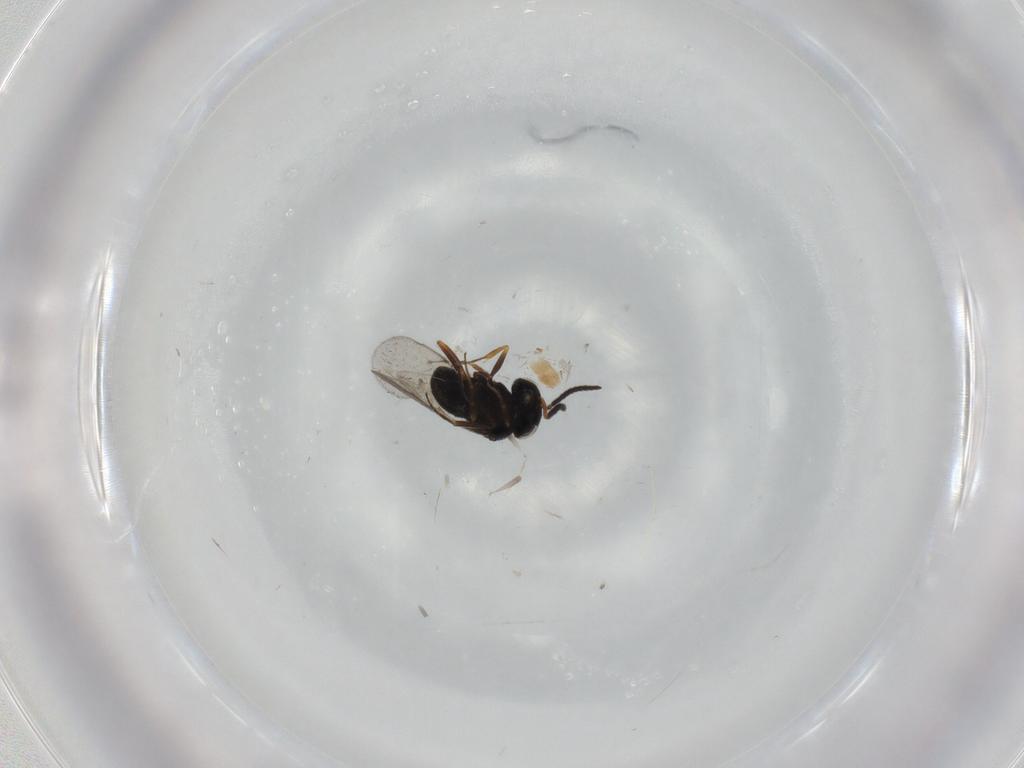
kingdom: Animalia
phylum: Arthropoda
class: Insecta
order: Hymenoptera
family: Scelionidae
